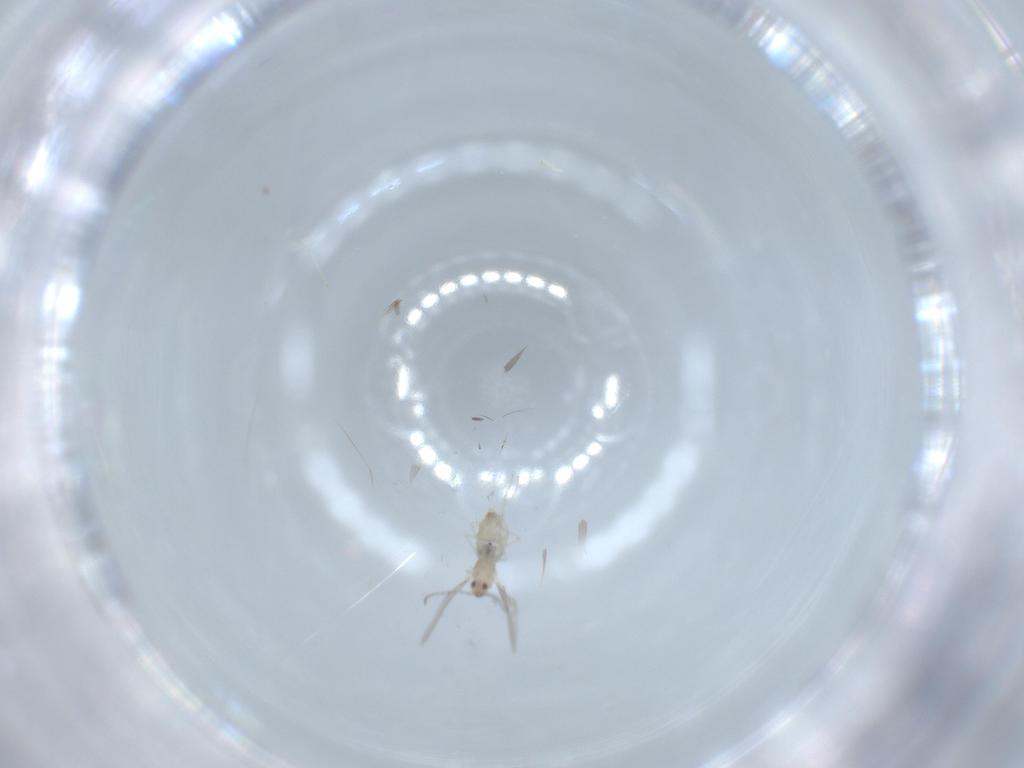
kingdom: Animalia
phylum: Arthropoda
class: Insecta
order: Diptera
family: Cecidomyiidae
